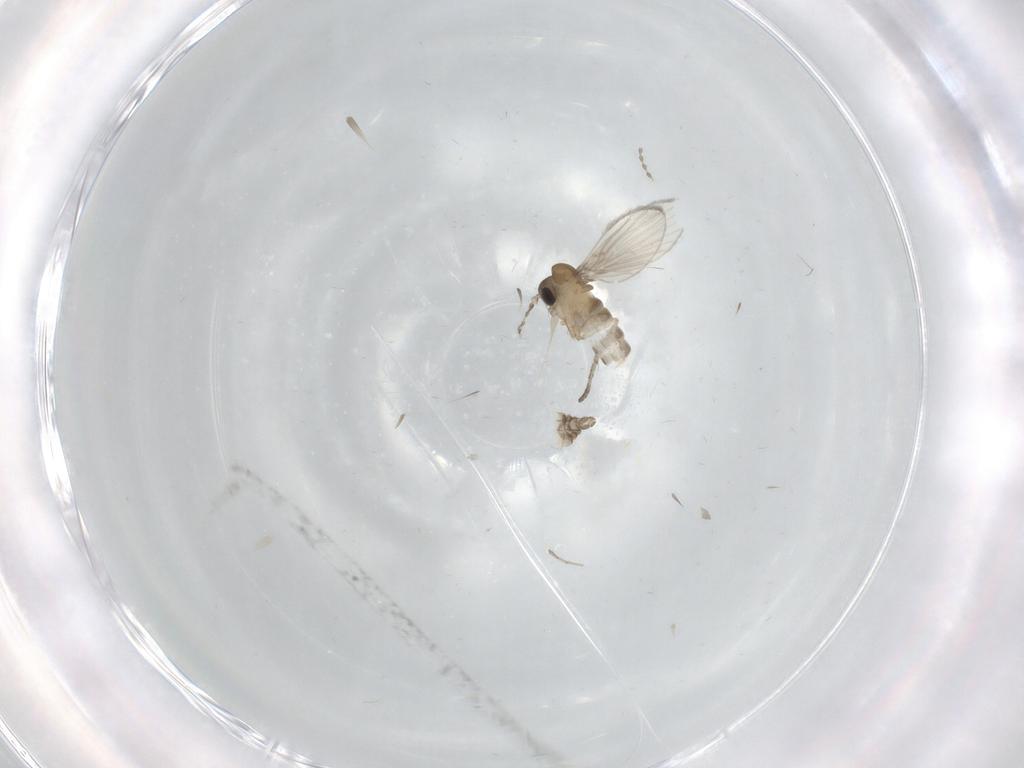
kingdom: Animalia
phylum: Arthropoda
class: Insecta
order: Diptera
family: Cecidomyiidae
